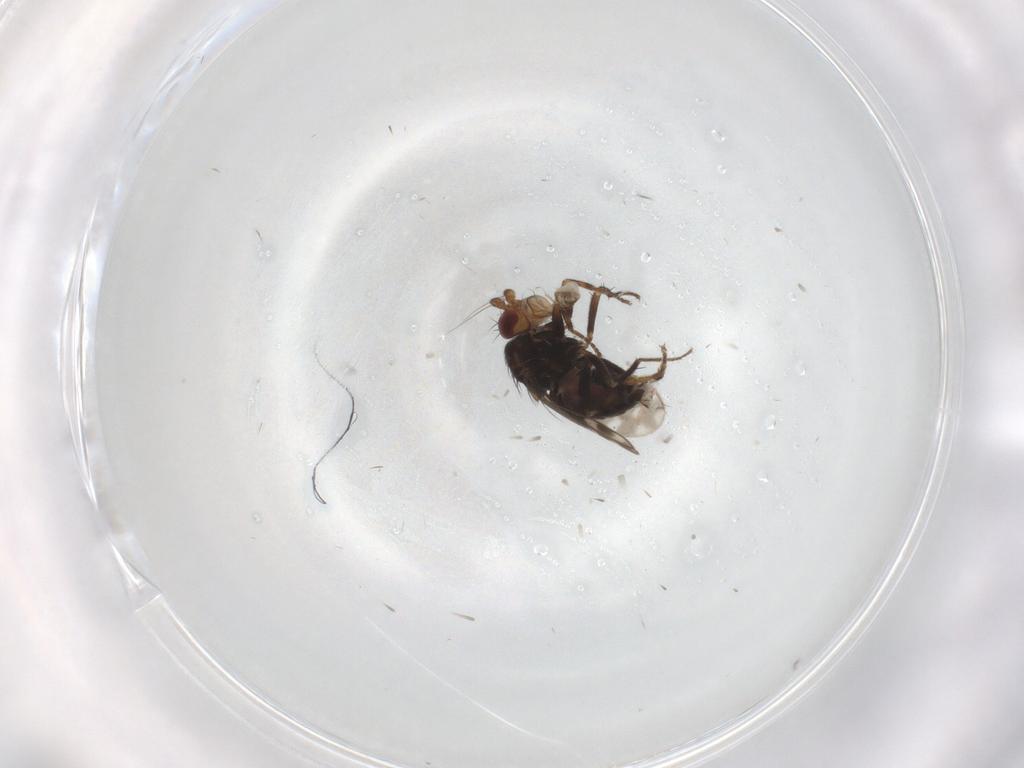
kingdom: Animalia
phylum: Arthropoda
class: Insecta
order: Diptera
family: Sphaeroceridae
